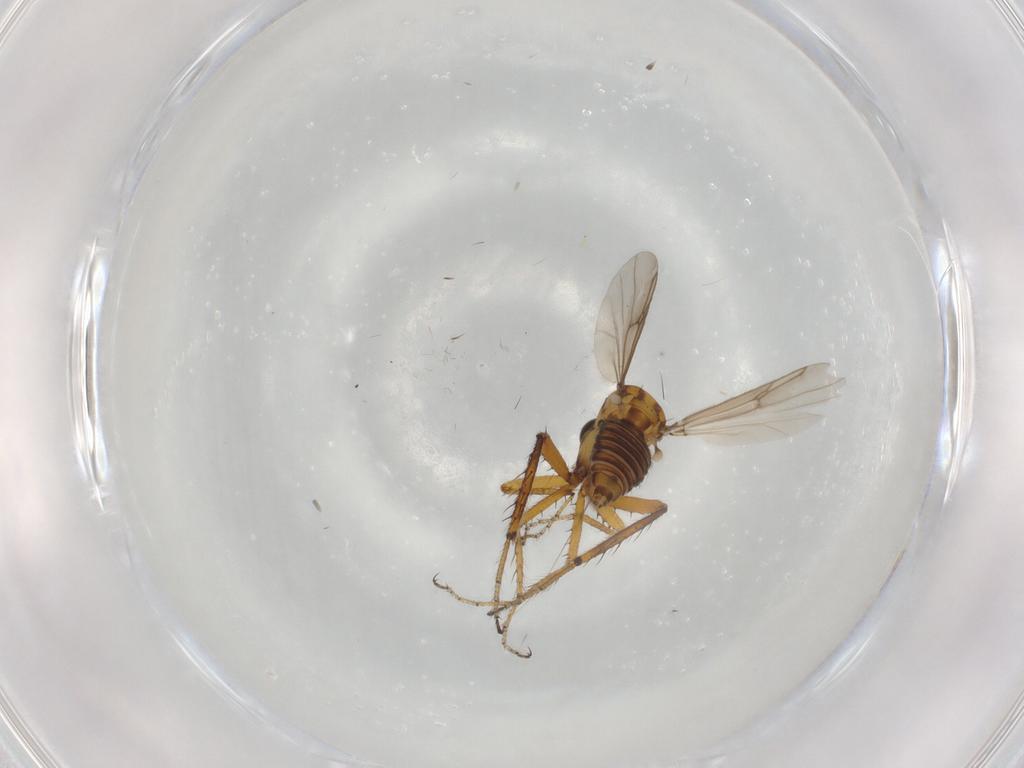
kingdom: Animalia
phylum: Arthropoda
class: Insecta
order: Diptera
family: Ceratopogonidae
